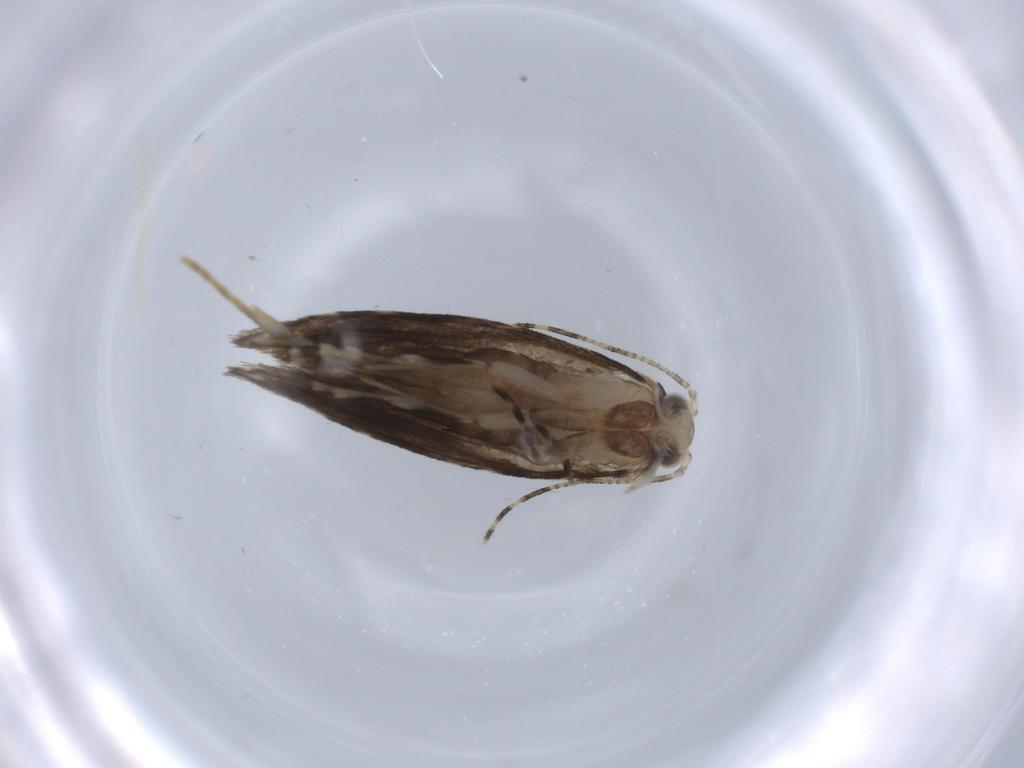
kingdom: Animalia
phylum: Arthropoda
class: Insecta
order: Lepidoptera
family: Tineidae
